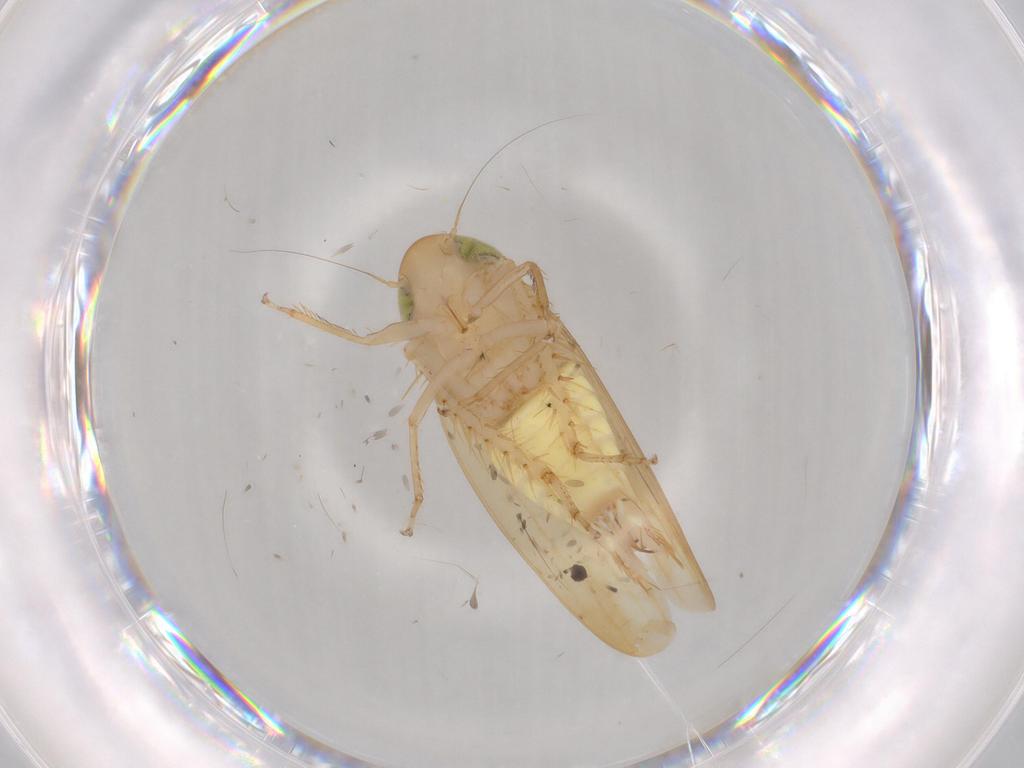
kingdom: Animalia
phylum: Arthropoda
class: Insecta
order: Hemiptera
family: Cicadellidae
